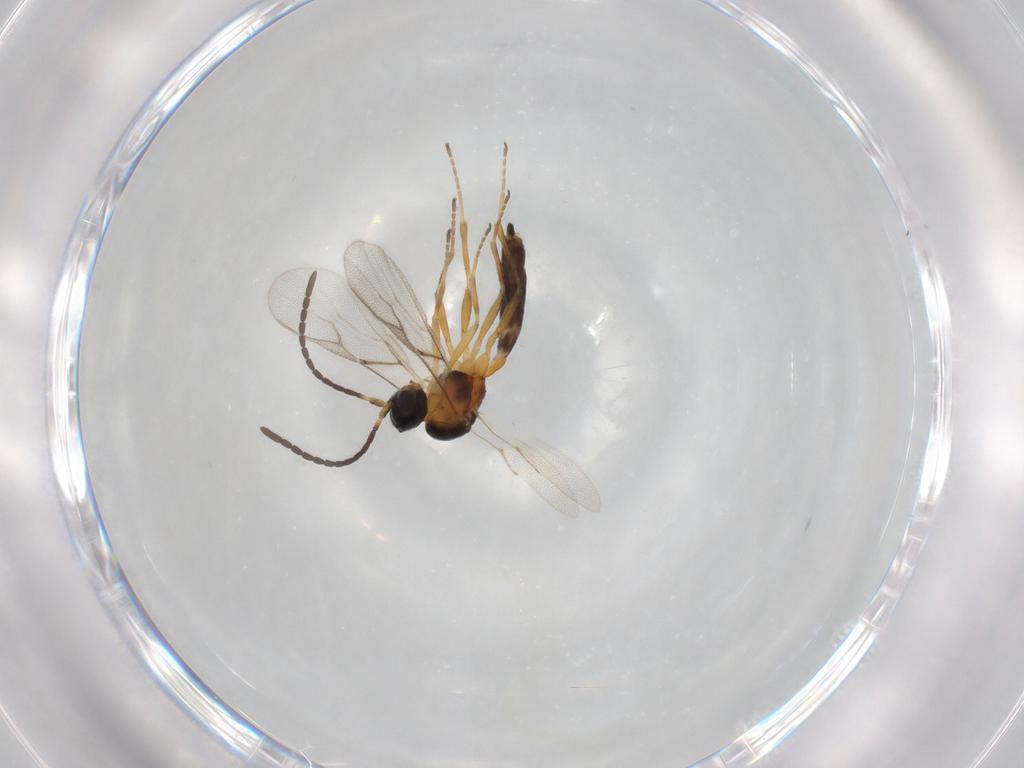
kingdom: Animalia
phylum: Arthropoda
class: Insecta
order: Hymenoptera
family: Braconidae
